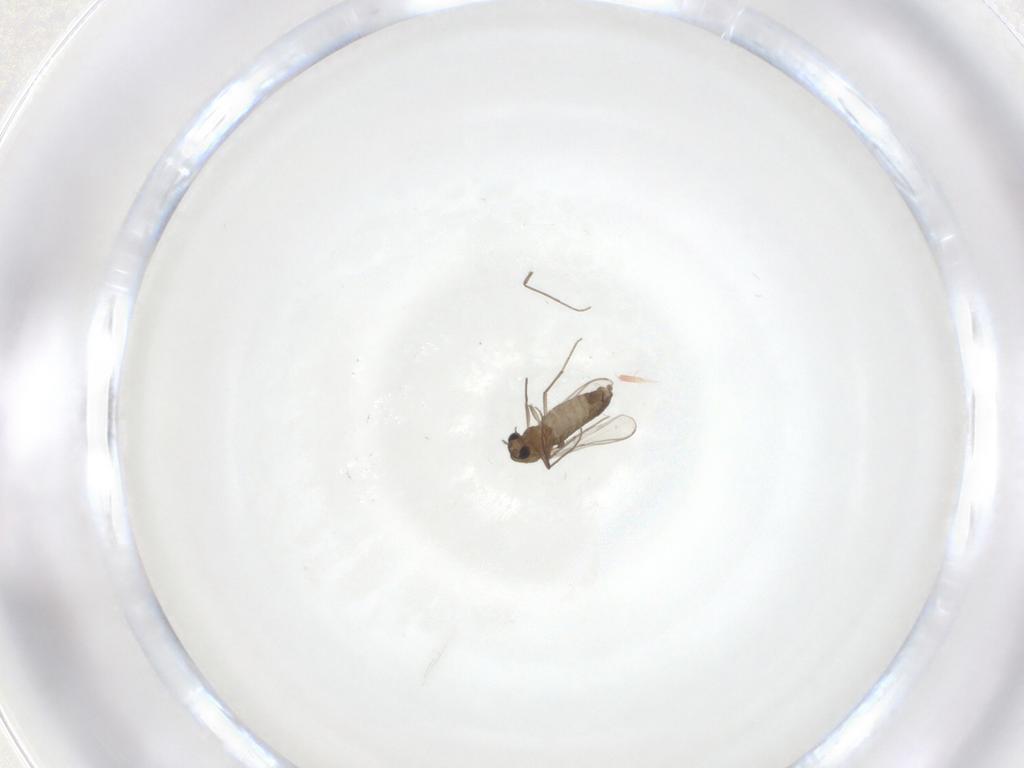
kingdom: Animalia
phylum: Arthropoda
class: Insecta
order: Diptera
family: Chironomidae
